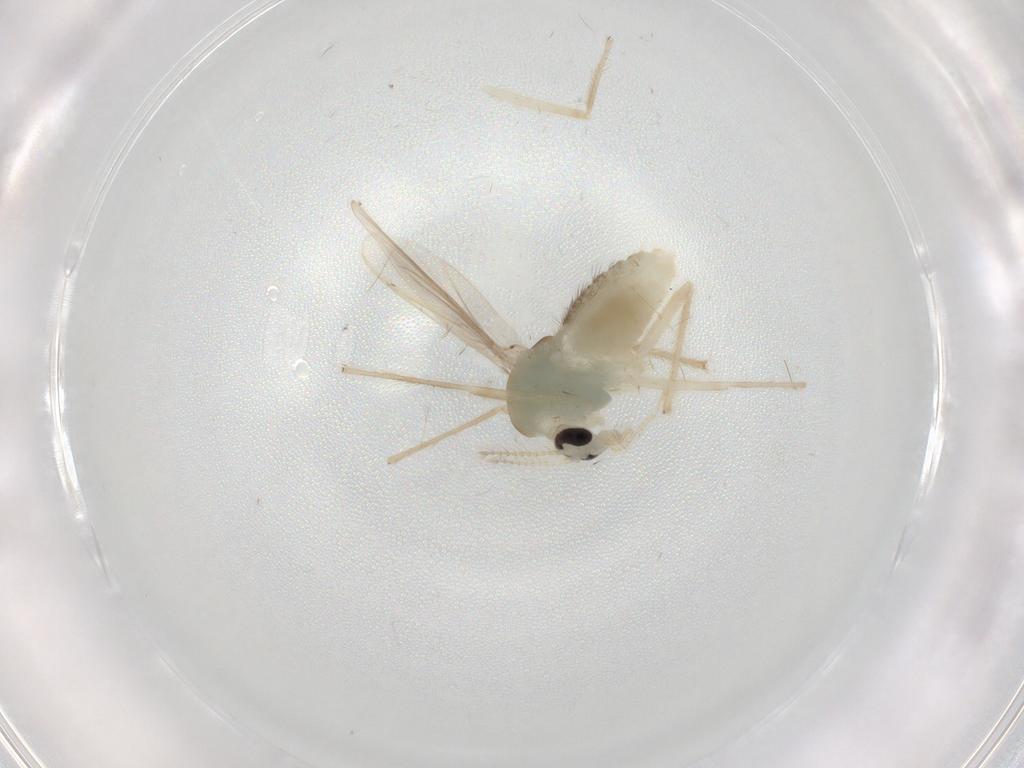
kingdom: Animalia
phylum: Arthropoda
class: Insecta
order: Diptera
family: Chironomidae
